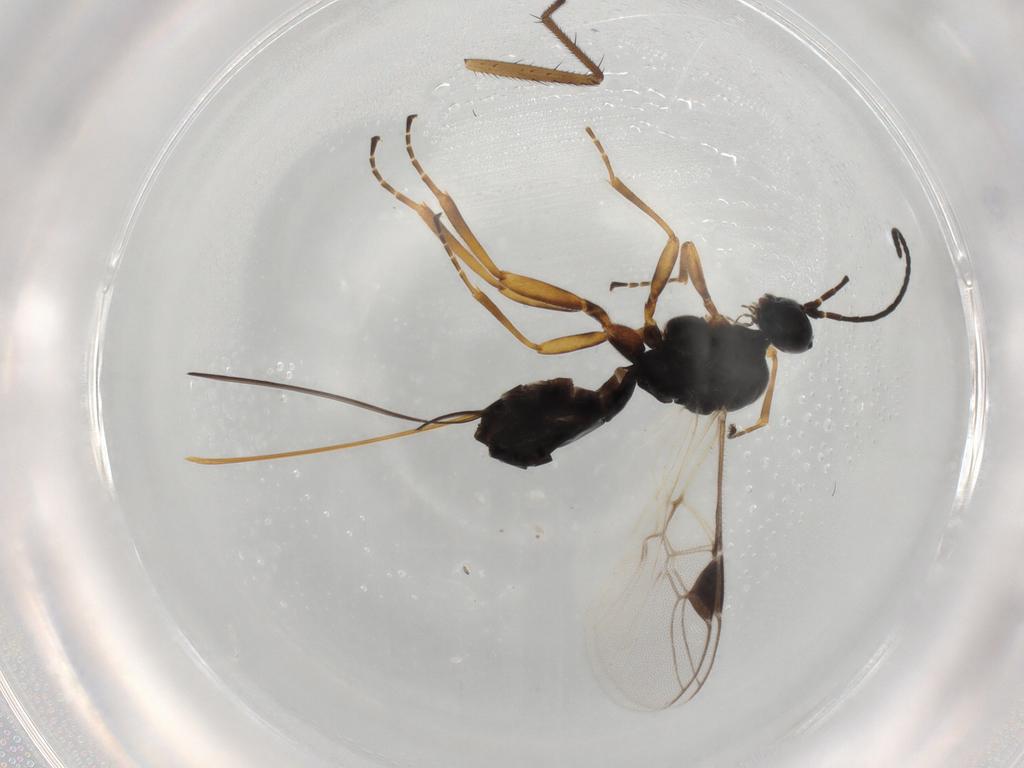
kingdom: Animalia
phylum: Arthropoda
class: Insecta
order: Hymenoptera
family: Braconidae
